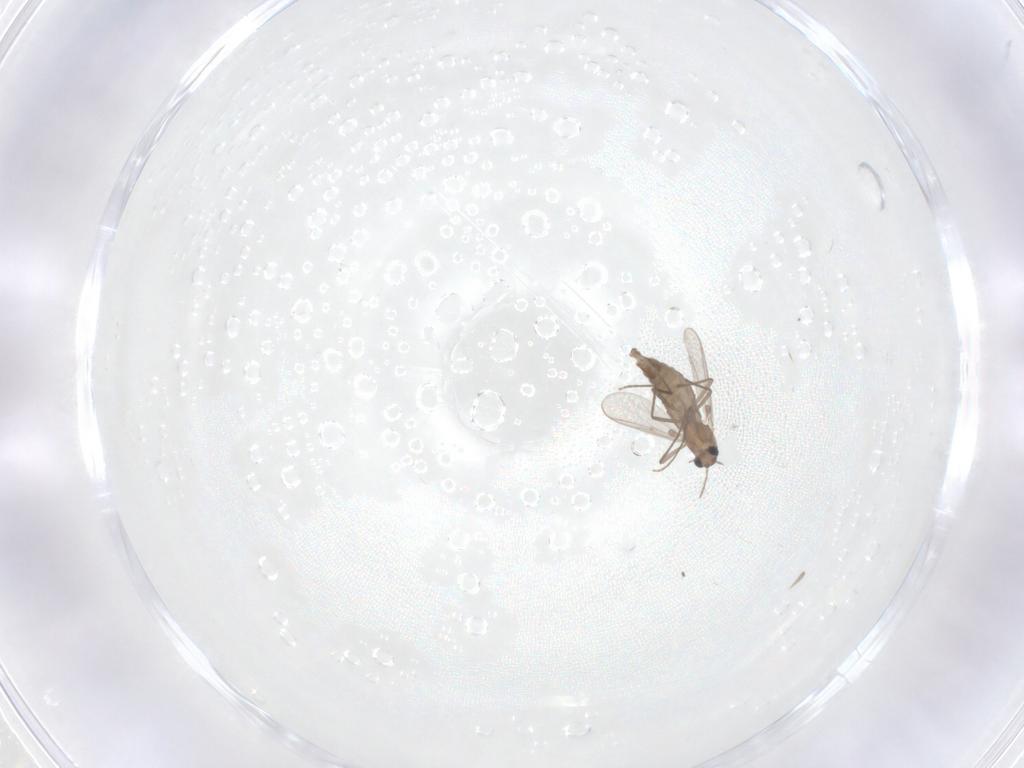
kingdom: Animalia
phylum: Arthropoda
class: Insecta
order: Diptera
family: Chironomidae
